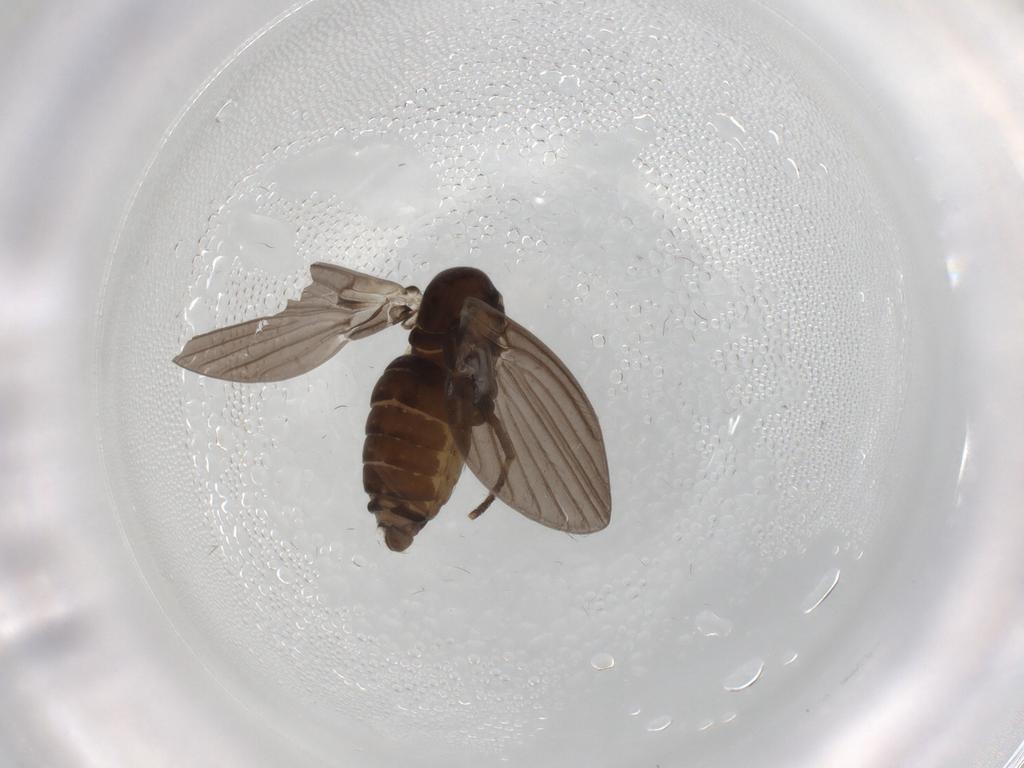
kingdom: Animalia
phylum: Arthropoda
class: Insecta
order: Diptera
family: Psychodidae
